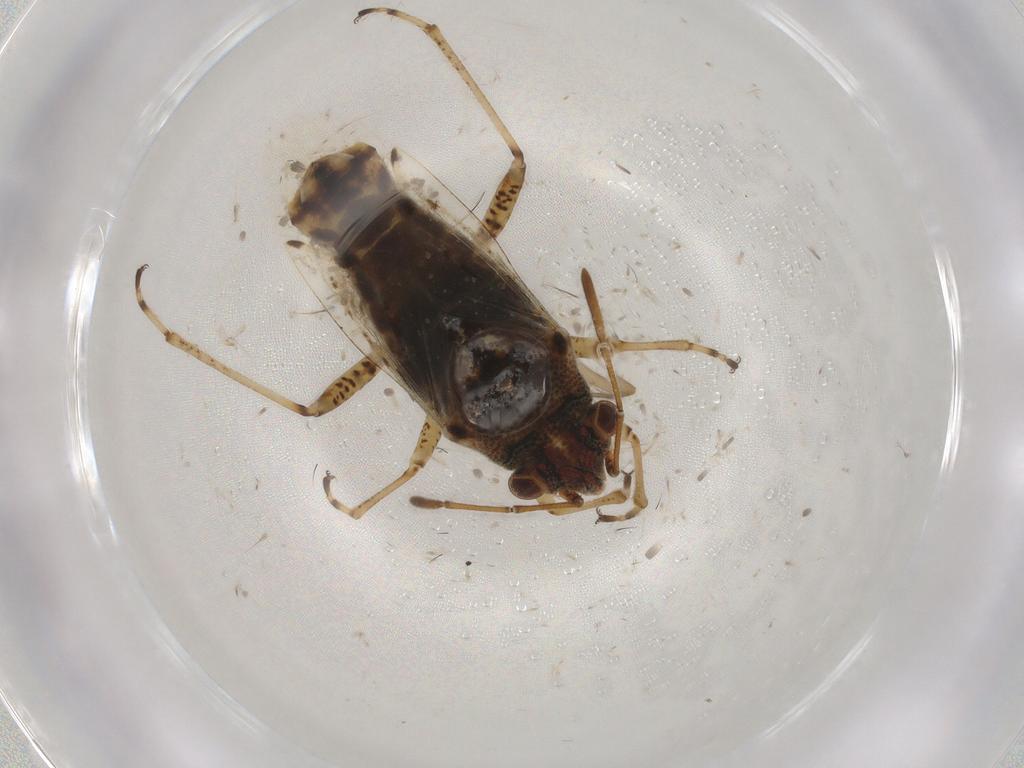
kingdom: Animalia
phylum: Arthropoda
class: Insecta
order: Hemiptera
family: Lygaeidae
